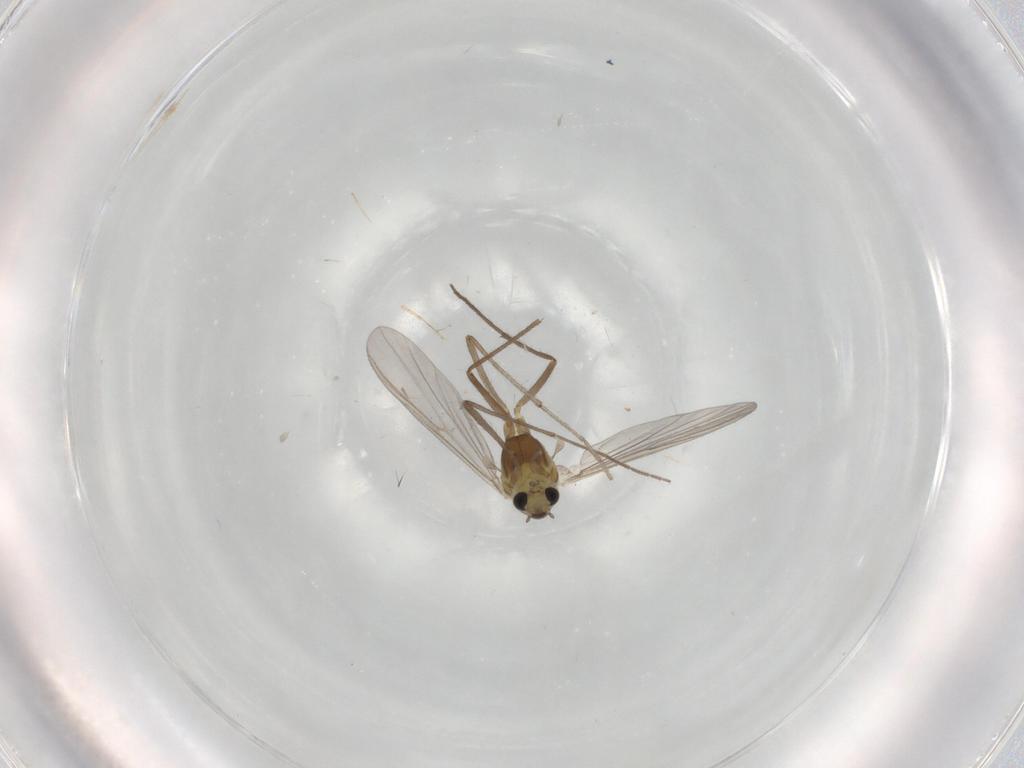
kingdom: Animalia
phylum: Arthropoda
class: Insecta
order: Diptera
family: Chironomidae
